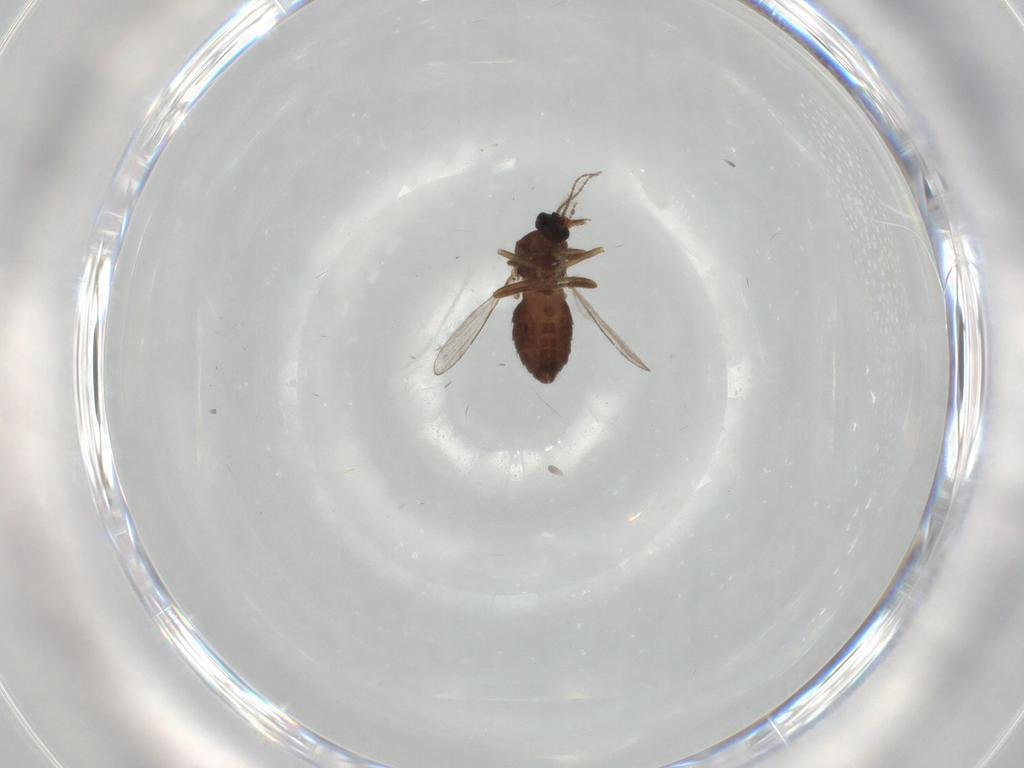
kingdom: Animalia
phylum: Arthropoda
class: Insecta
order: Diptera
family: Ceratopogonidae
